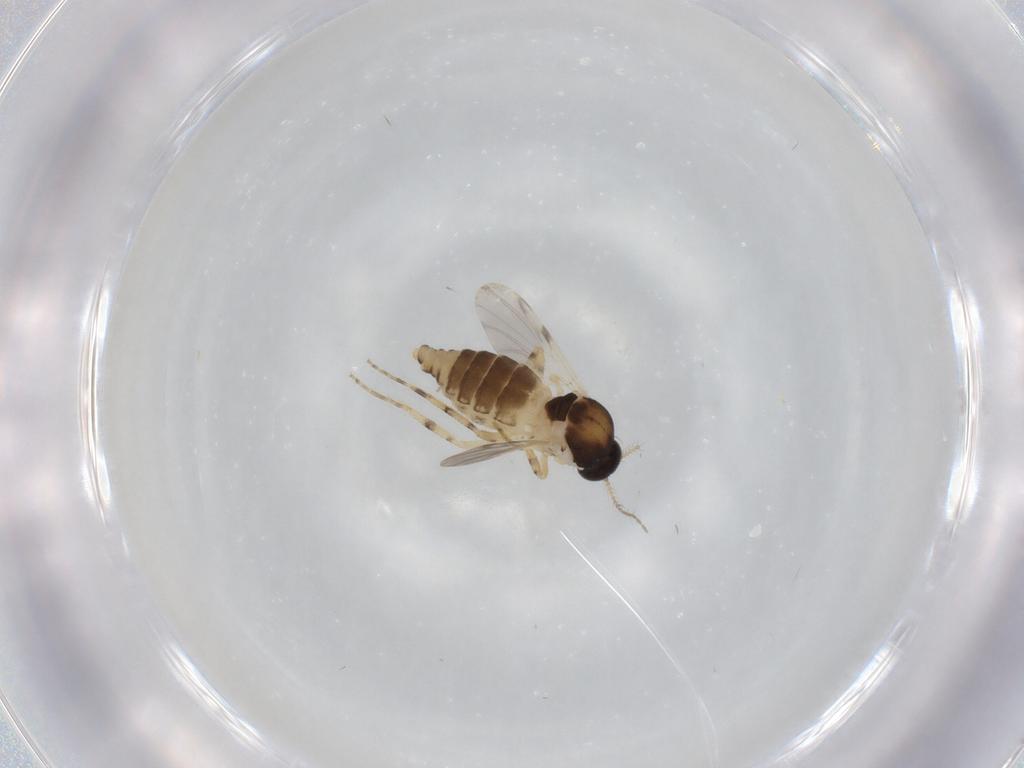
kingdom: Animalia
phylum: Arthropoda
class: Insecta
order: Diptera
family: Ceratopogonidae
